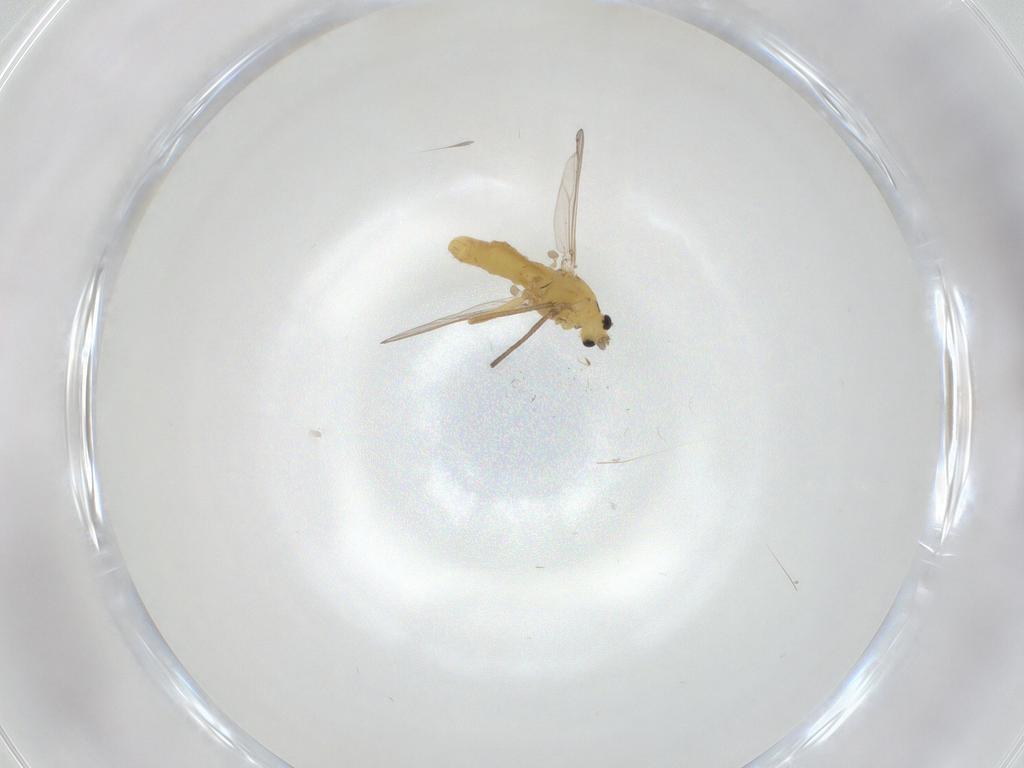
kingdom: Animalia
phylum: Arthropoda
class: Insecta
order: Diptera
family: Chironomidae
